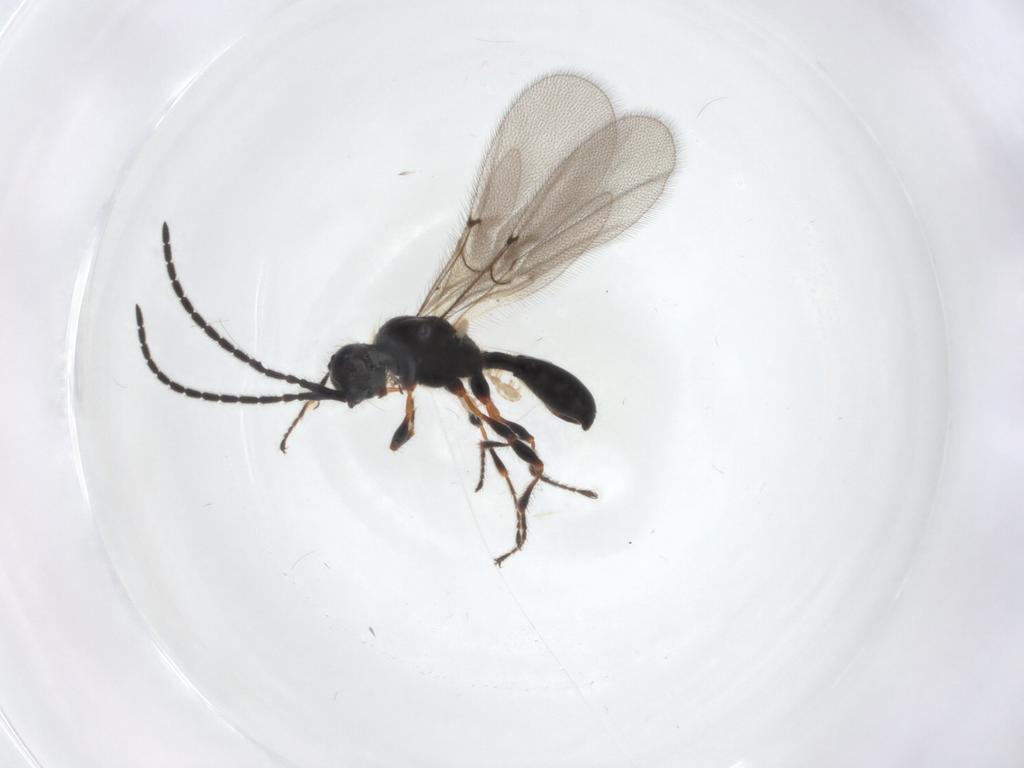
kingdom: Animalia
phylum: Arthropoda
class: Insecta
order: Hymenoptera
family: Diapriidae
